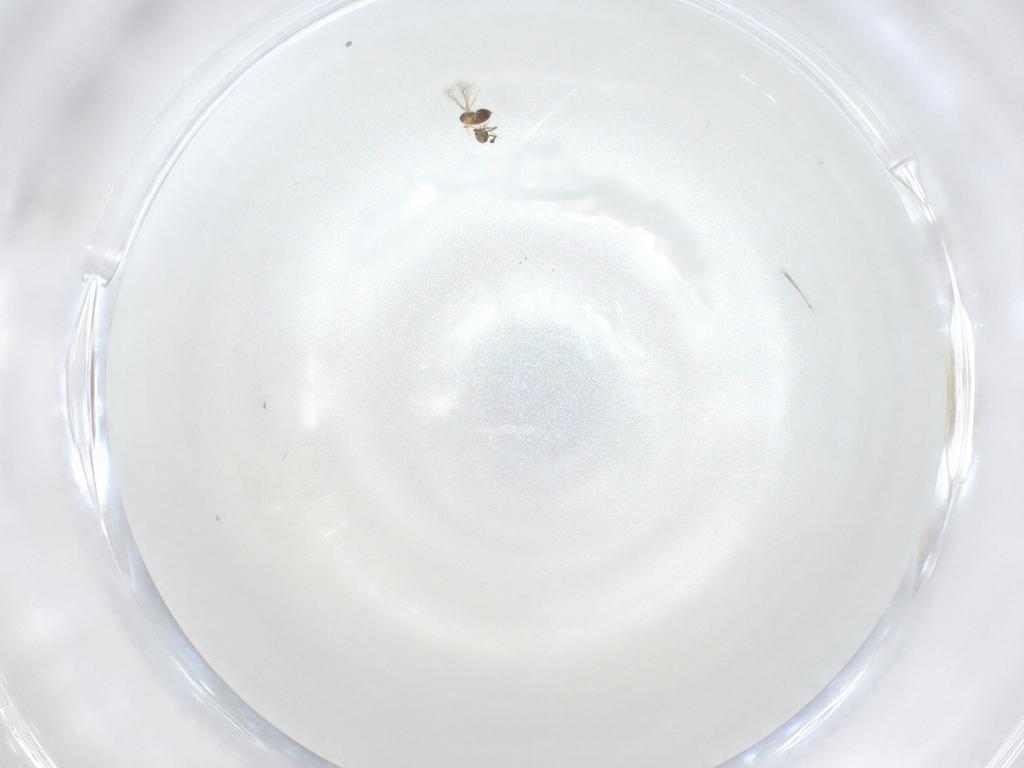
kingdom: Animalia
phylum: Arthropoda
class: Insecta
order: Hymenoptera
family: Mymaridae
